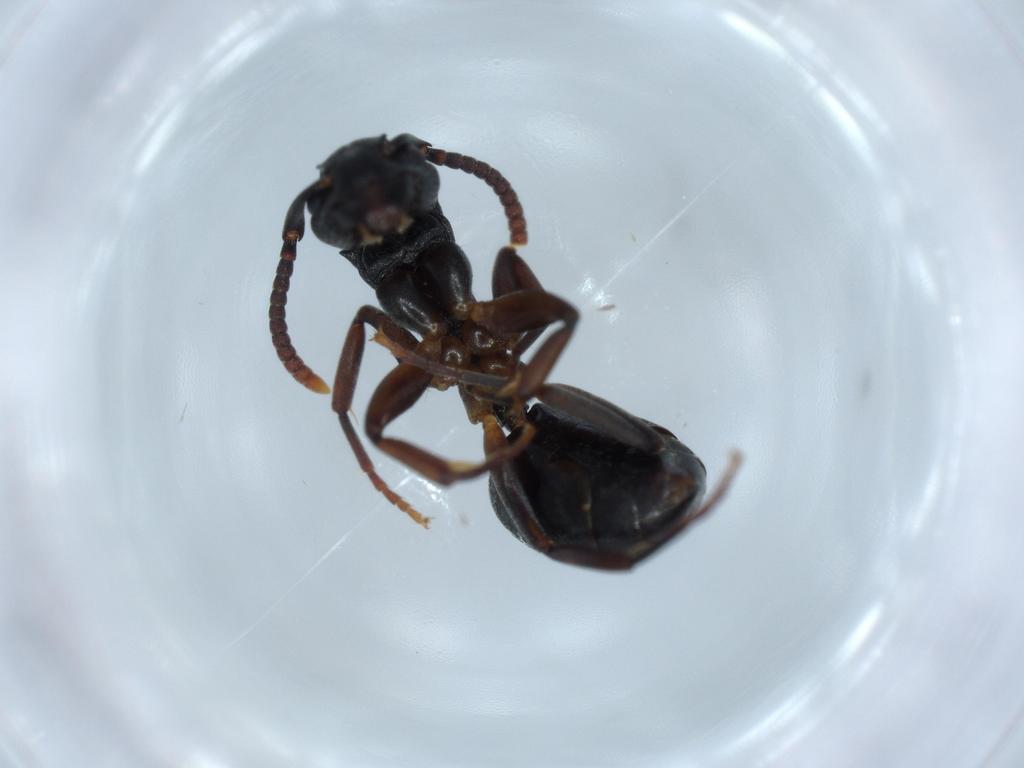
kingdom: Animalia
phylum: Arthropoda
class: Insecta
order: Hymenoptera
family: Formicidae
